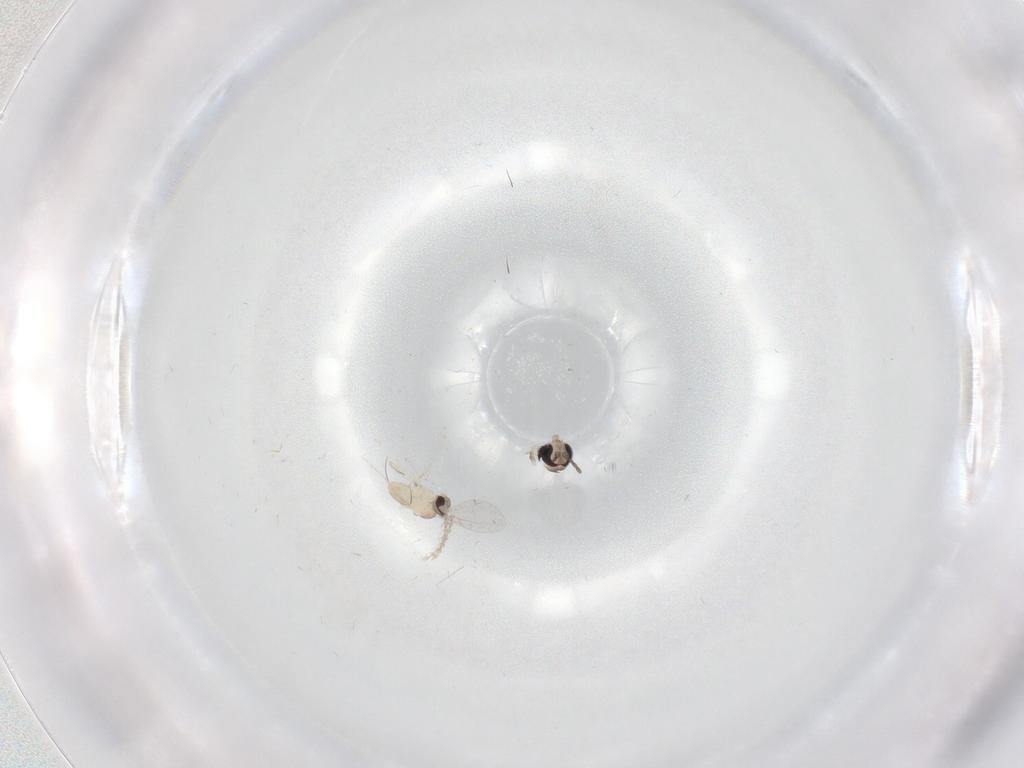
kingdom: Animalia
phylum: Arthropoda
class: Insecta
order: Diptera
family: Cecidomyiidae
